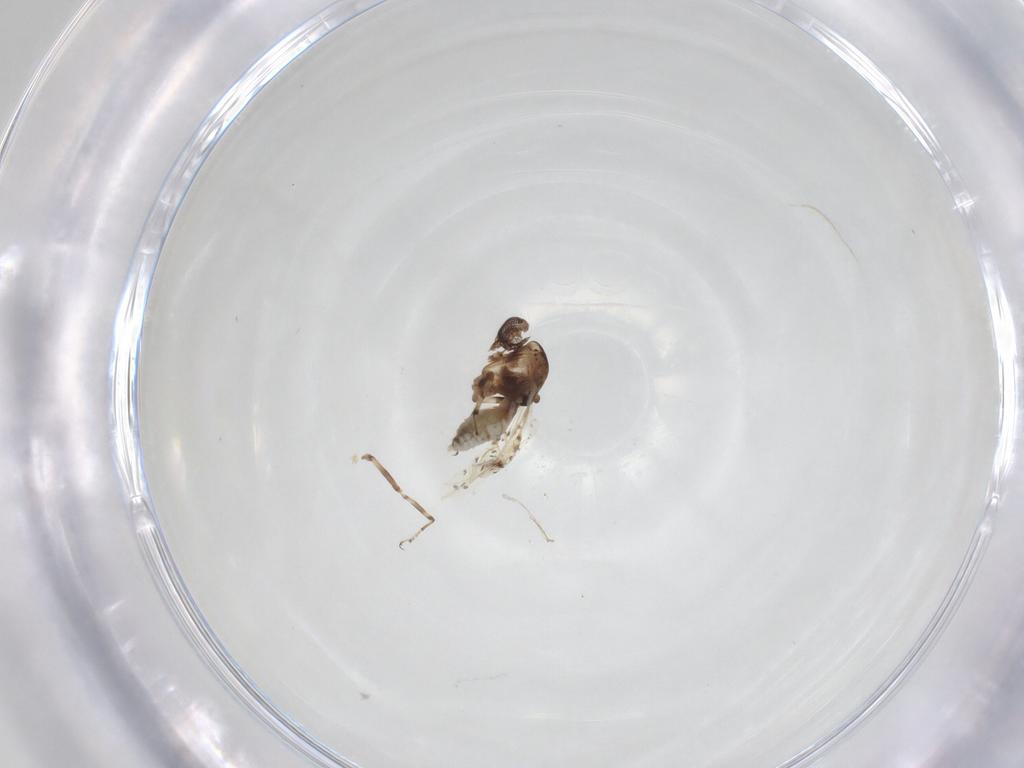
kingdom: Animalia
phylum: Arthropoda
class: Insecta
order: Diptera
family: Ceratopogonidae
